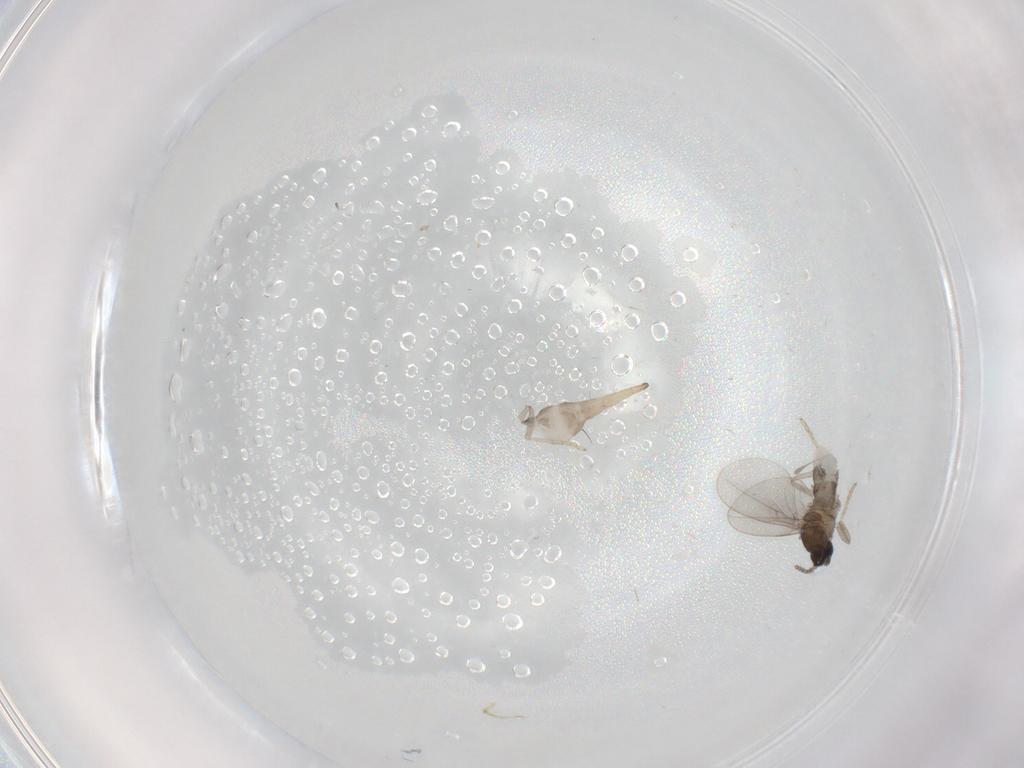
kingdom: Animalia
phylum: Arthropoda
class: Insecta
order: Diptera
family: Cecidomyiidae
